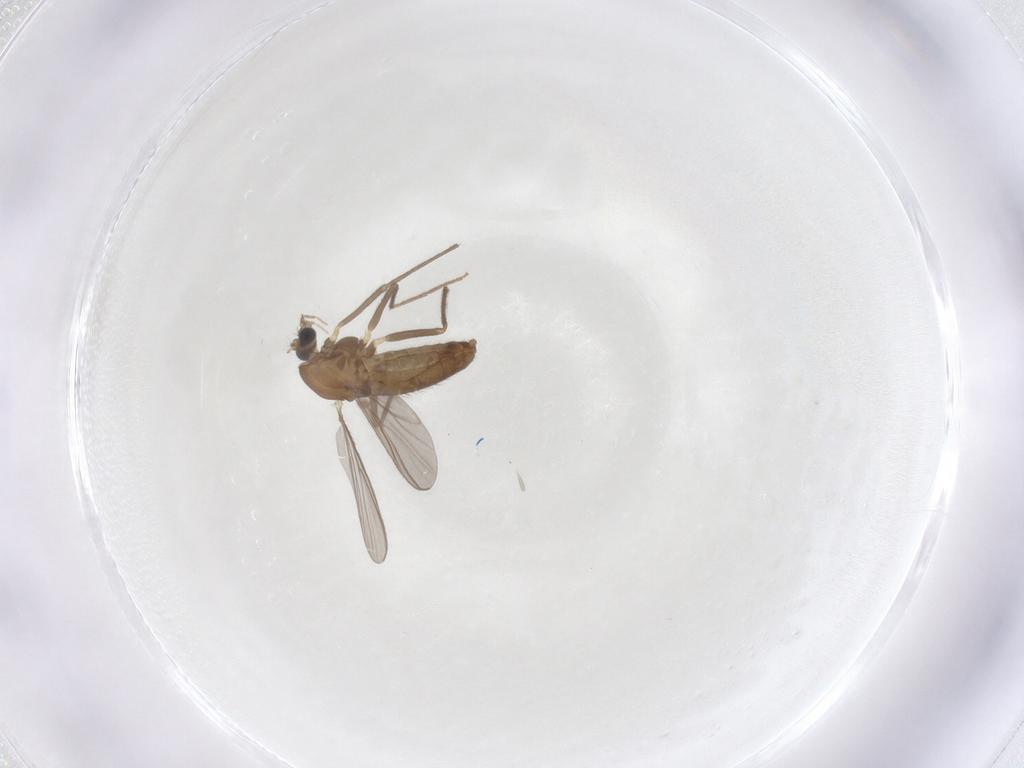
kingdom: Animalia
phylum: Arthropoda
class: Insecta
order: Diptera
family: Chironomidae
